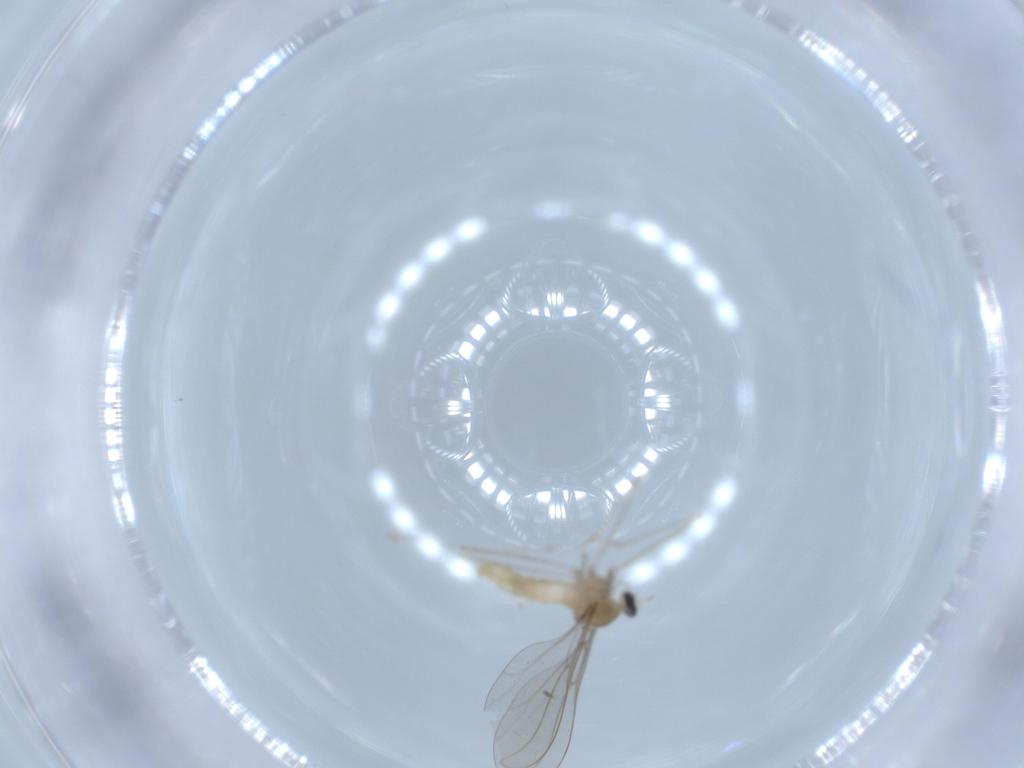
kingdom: Animalia
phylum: Arthropoda
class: Insecta
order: Diptera
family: Cecidomyiidae
